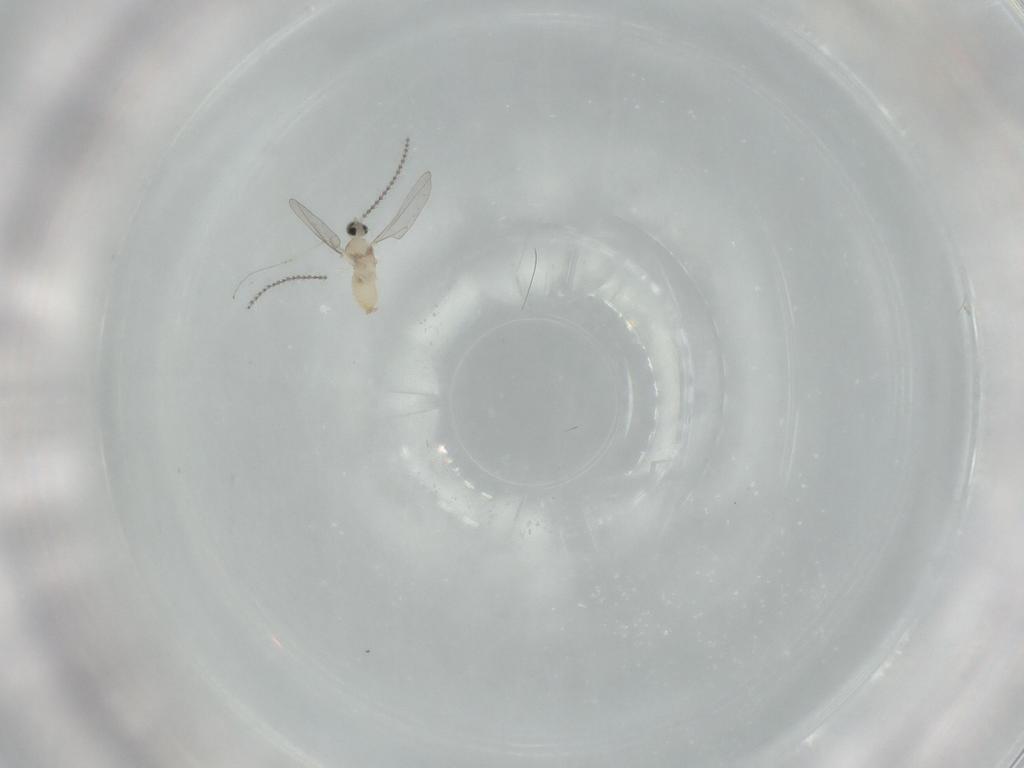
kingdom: Animalia
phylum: Arthropoda
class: Insecta
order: Diptera
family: Cecidomyiidae
